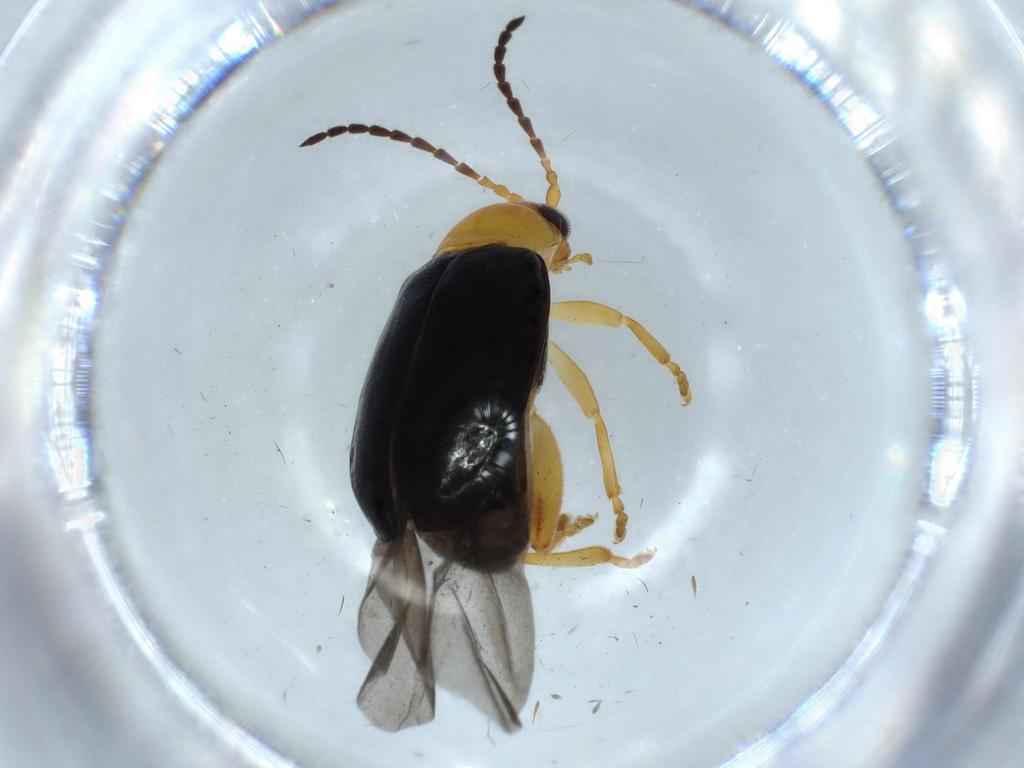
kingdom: Animalia
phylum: Arthropoda
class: Insecta
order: Coleoptera
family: Chrysomelidae
